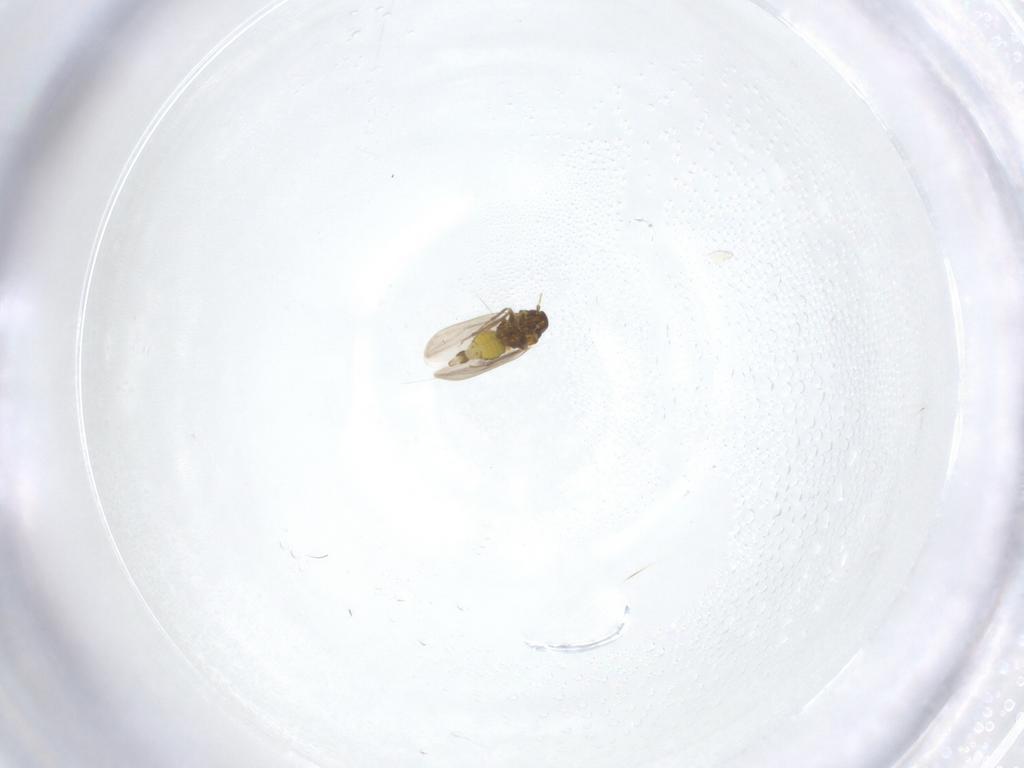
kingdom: Animalia
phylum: Arthropoda
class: Insecta
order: Hemiptera
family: Aleyrodidae
